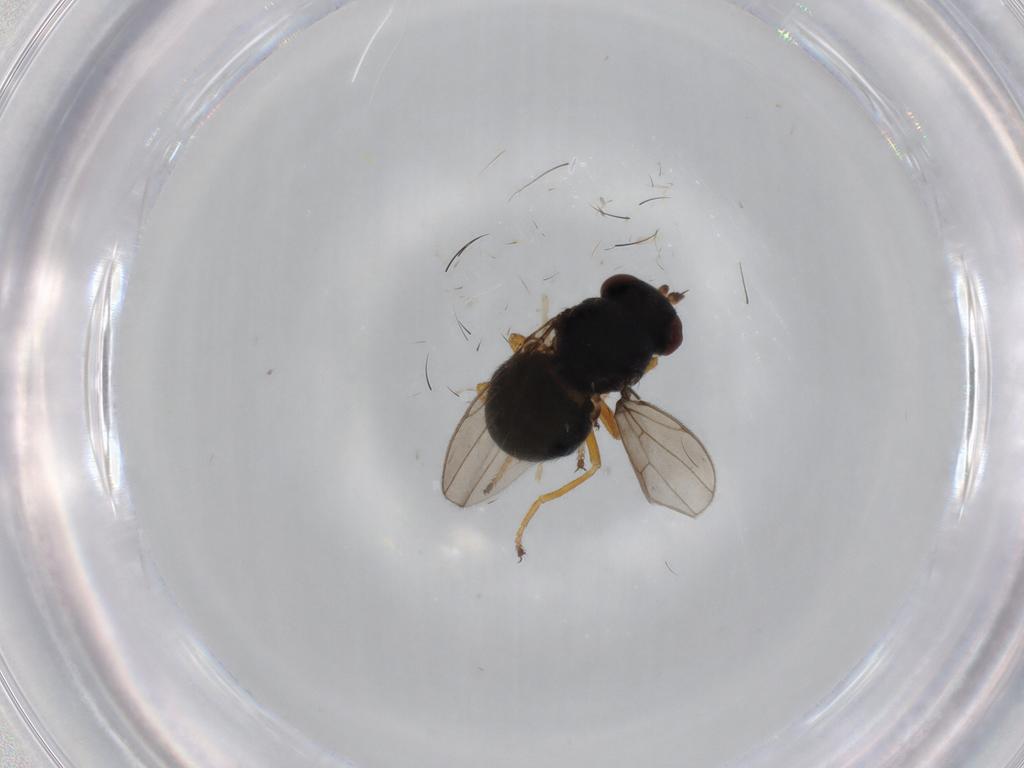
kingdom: Animalia
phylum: Arthropoda
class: Insecta
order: Diptera
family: Ephydridae
